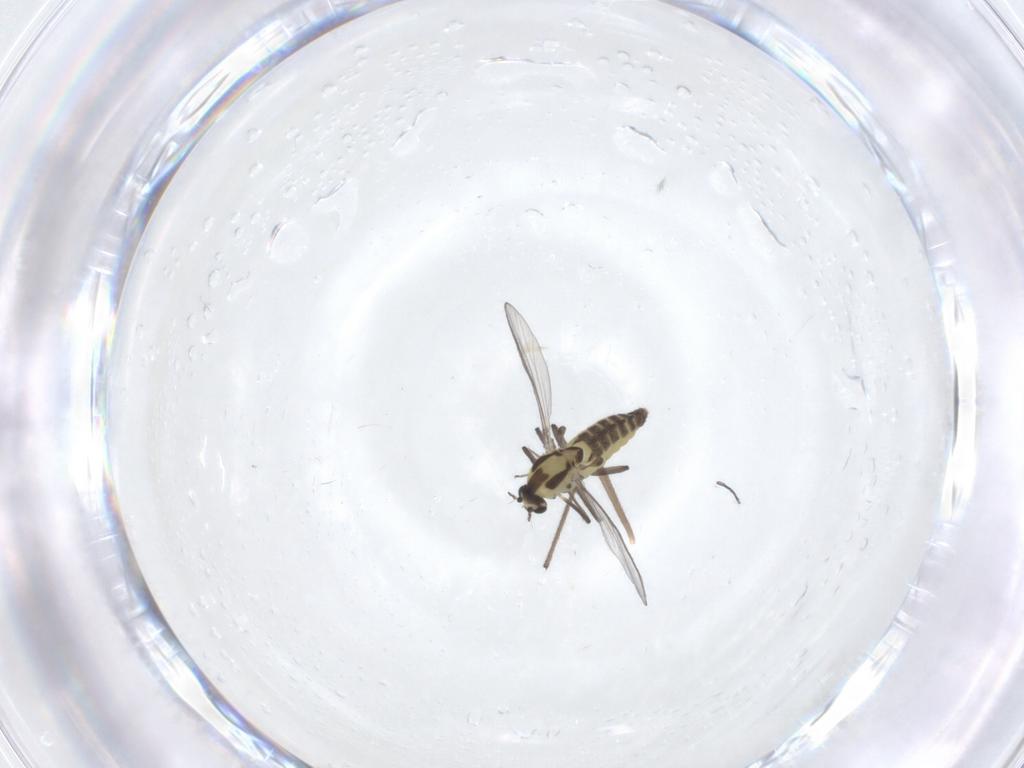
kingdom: Animalia
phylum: Arthropoda
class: Insecta
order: Diptera
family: Chironomidae
